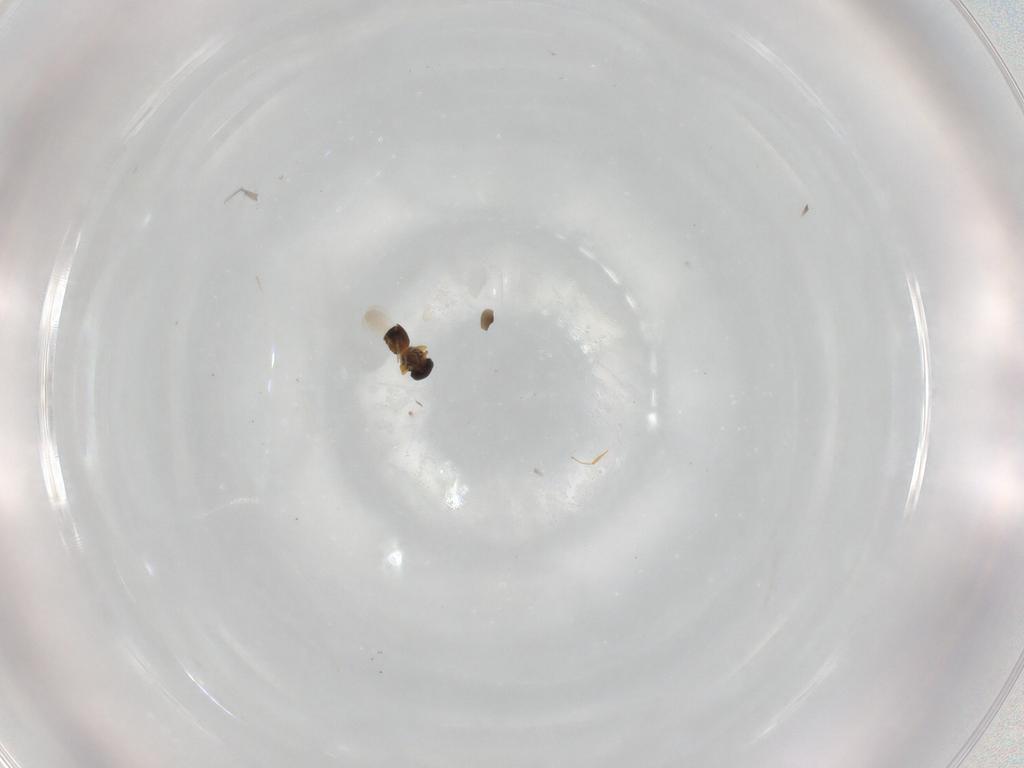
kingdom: Animalia
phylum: Arthropoda
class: Insecta
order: Hymenoptera
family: Platygastridae
